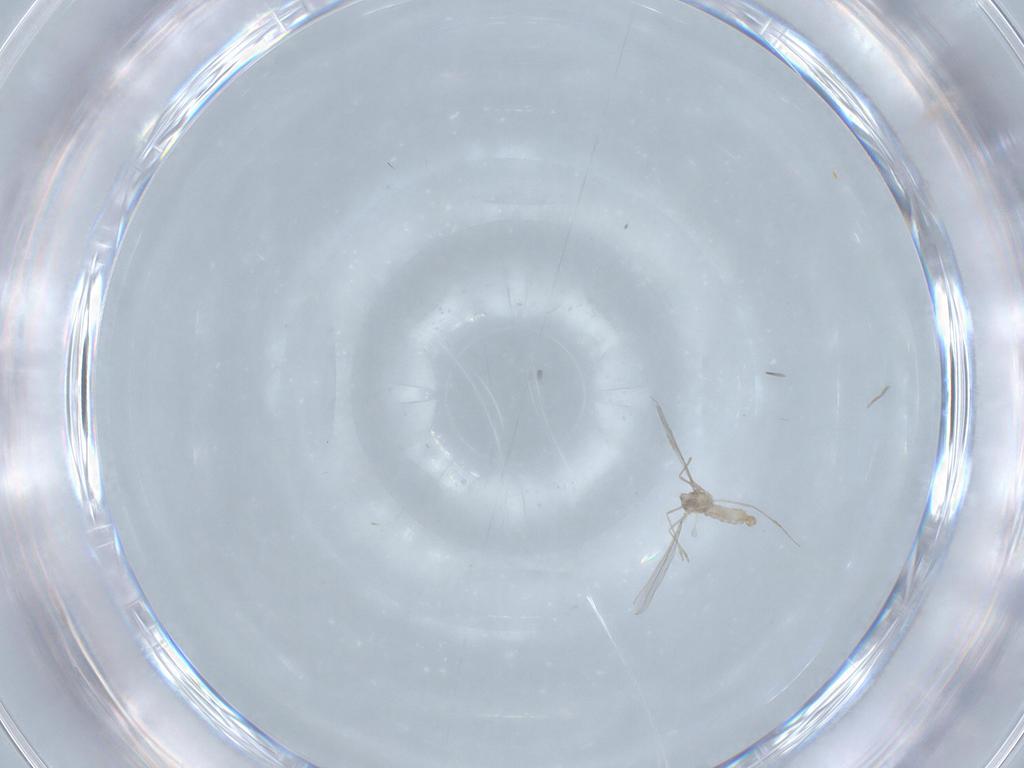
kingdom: Animalia
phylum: Arthropoda
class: Insecta
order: Diptera
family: Cecidomyiidae
